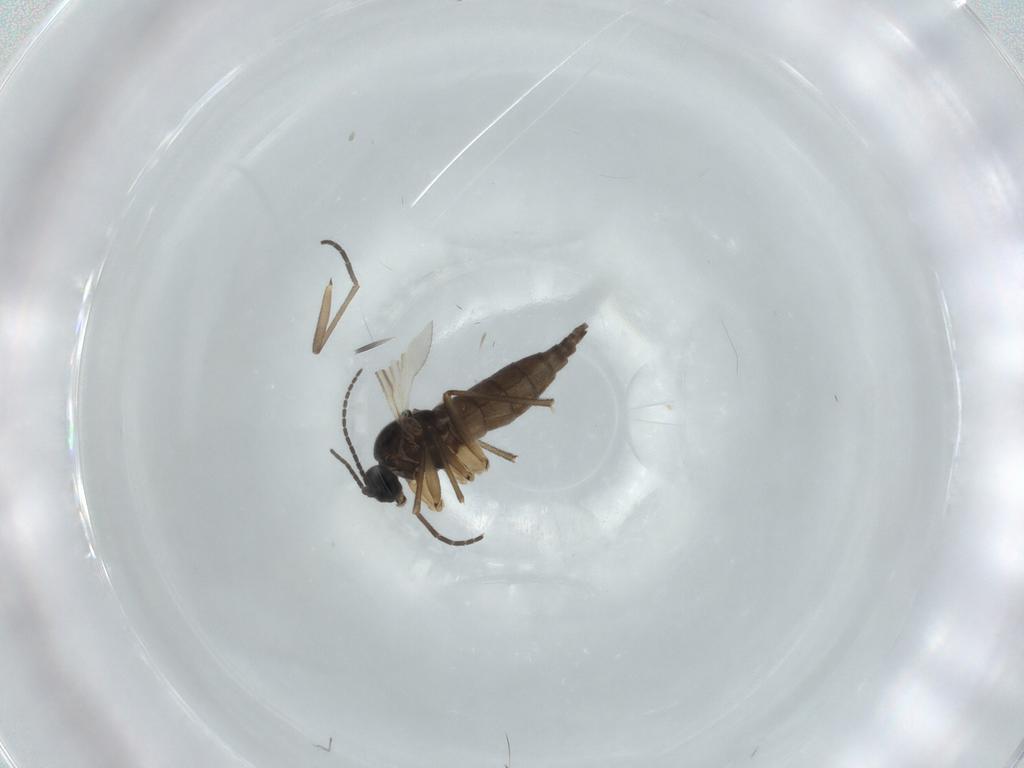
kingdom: Animalia
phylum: Arthropoda
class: Insecta
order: Diptera
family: Sciaridae
